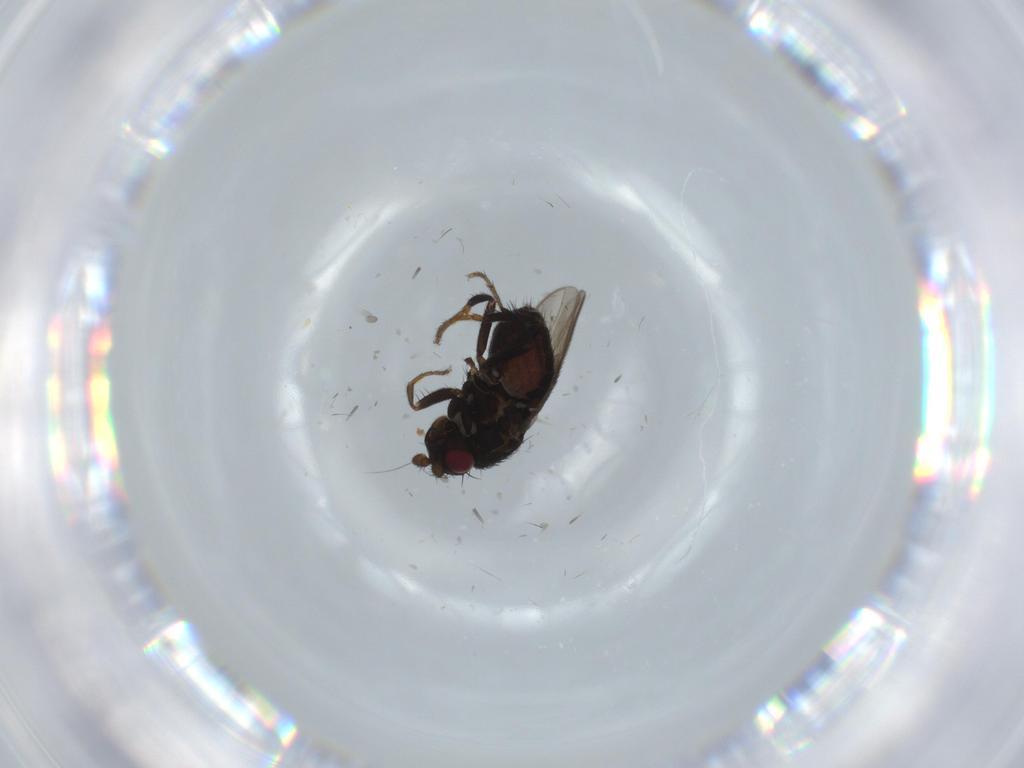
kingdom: Animalia
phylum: Arthropoda
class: Insecta
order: Diptera
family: Sphaeroceridae
